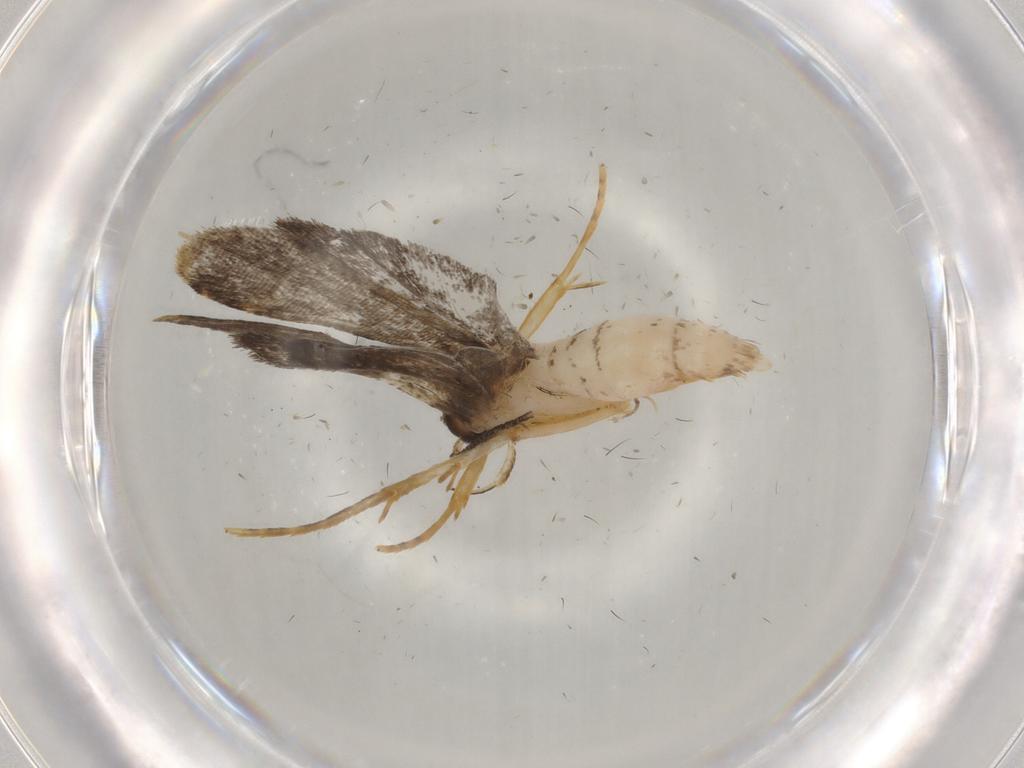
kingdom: Animalia
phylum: Arthropoda
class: Insecta
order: Lepidoptera
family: Cosmopterigidae
